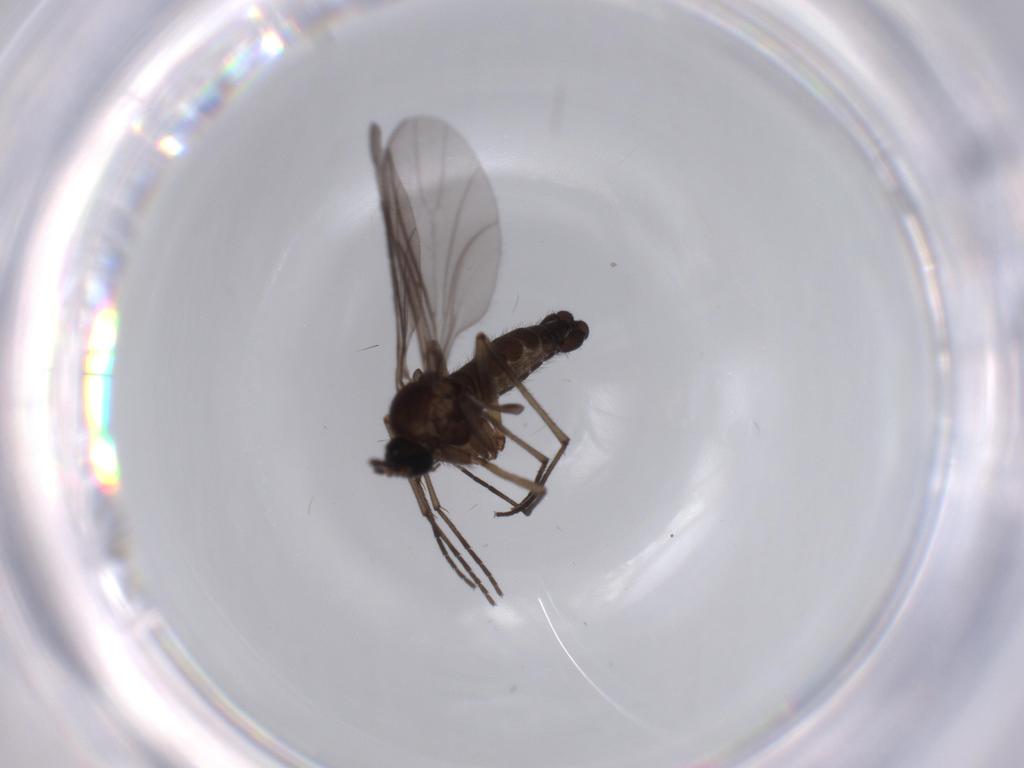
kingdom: Animalia
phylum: Arthropoda
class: Insecta
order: Diptera
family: Sciaridae
